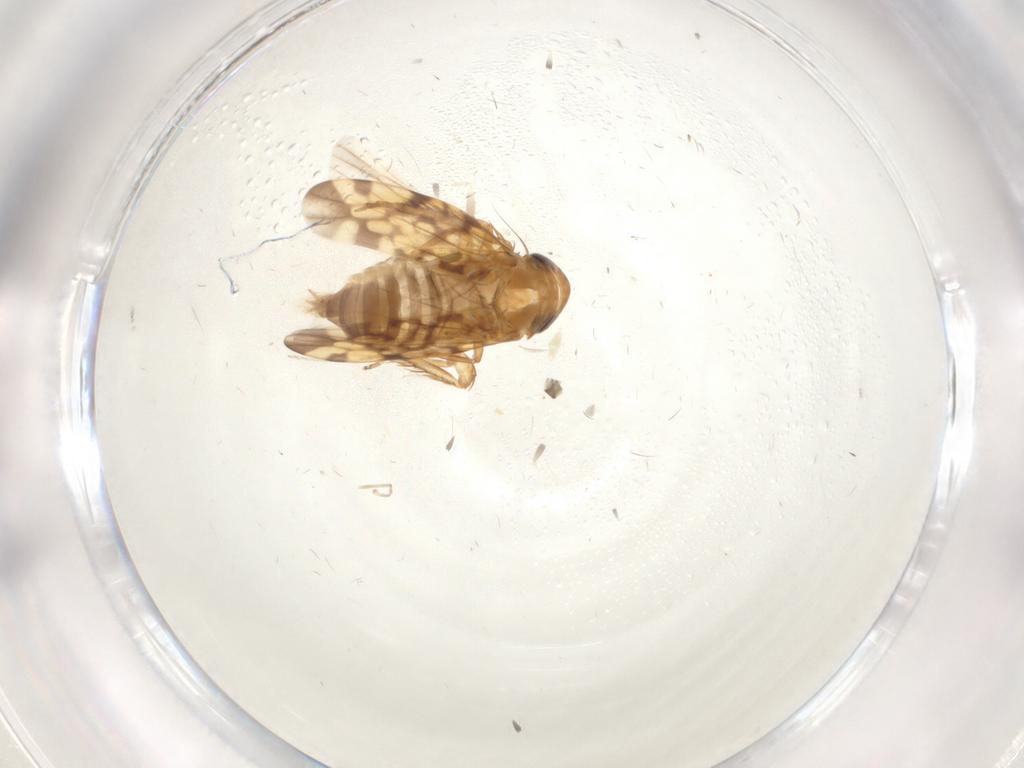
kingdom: Animalia
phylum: Arthropoda
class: Insecta
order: Hemiptera
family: Cicadellidae
